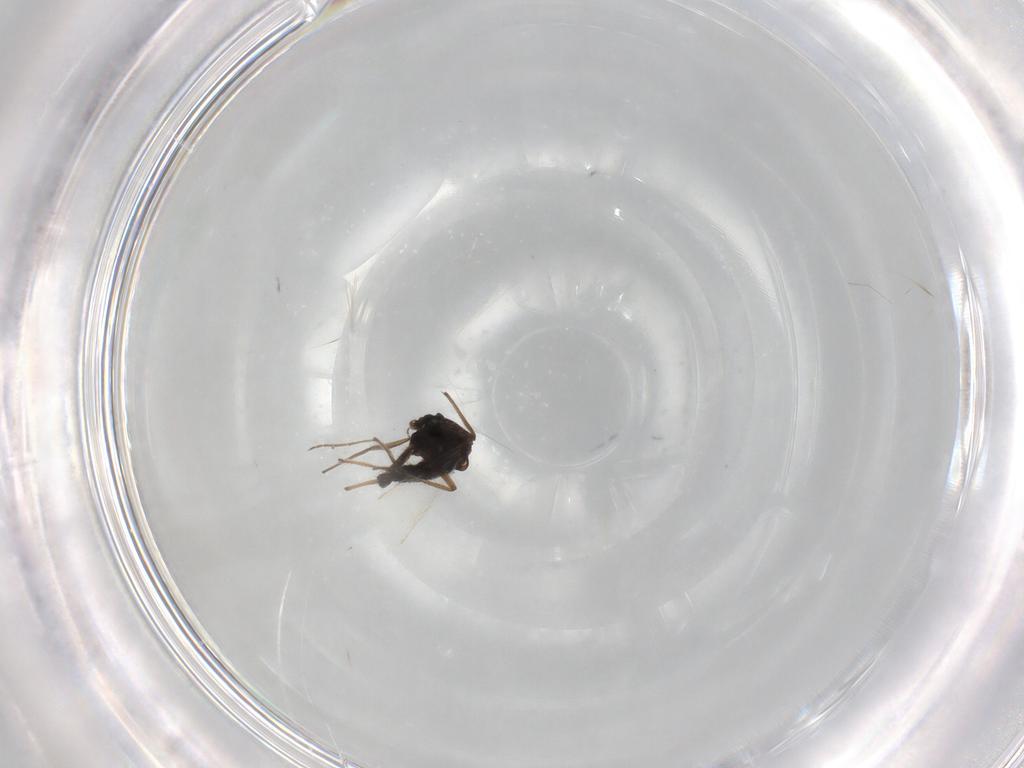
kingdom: Animalia
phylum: Arthropoda
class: Insecta
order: Diptera
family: Chironomidae
